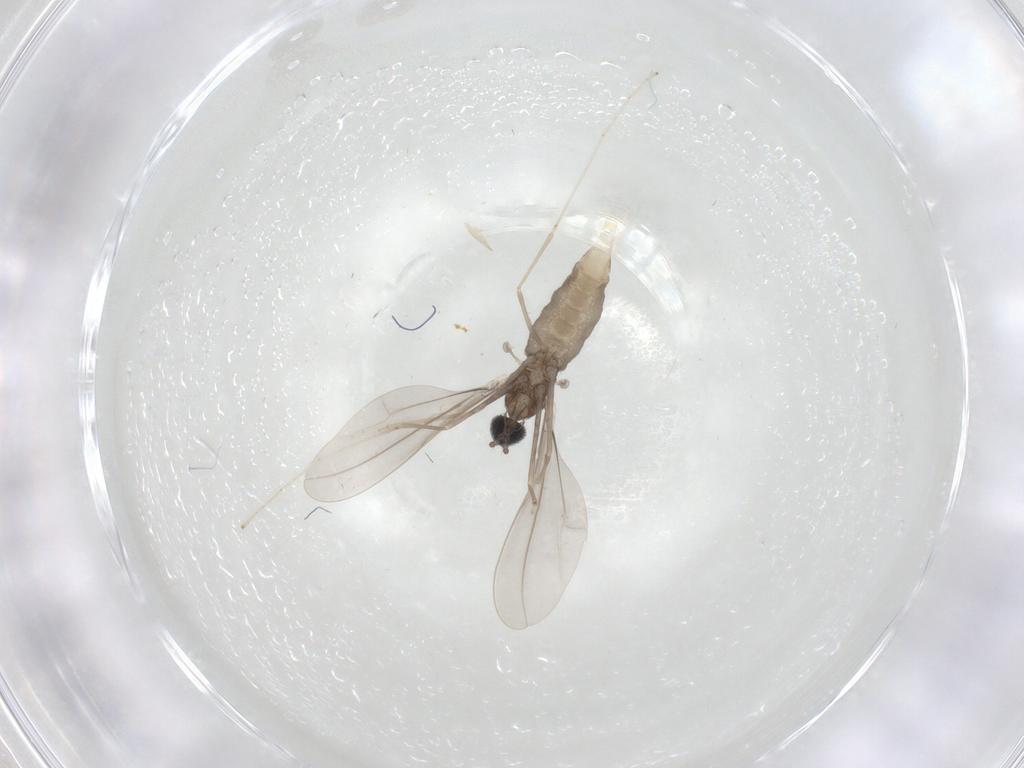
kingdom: Animalia
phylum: Arthropoda
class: Insecta
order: Diptera
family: Cecidomyiidae
